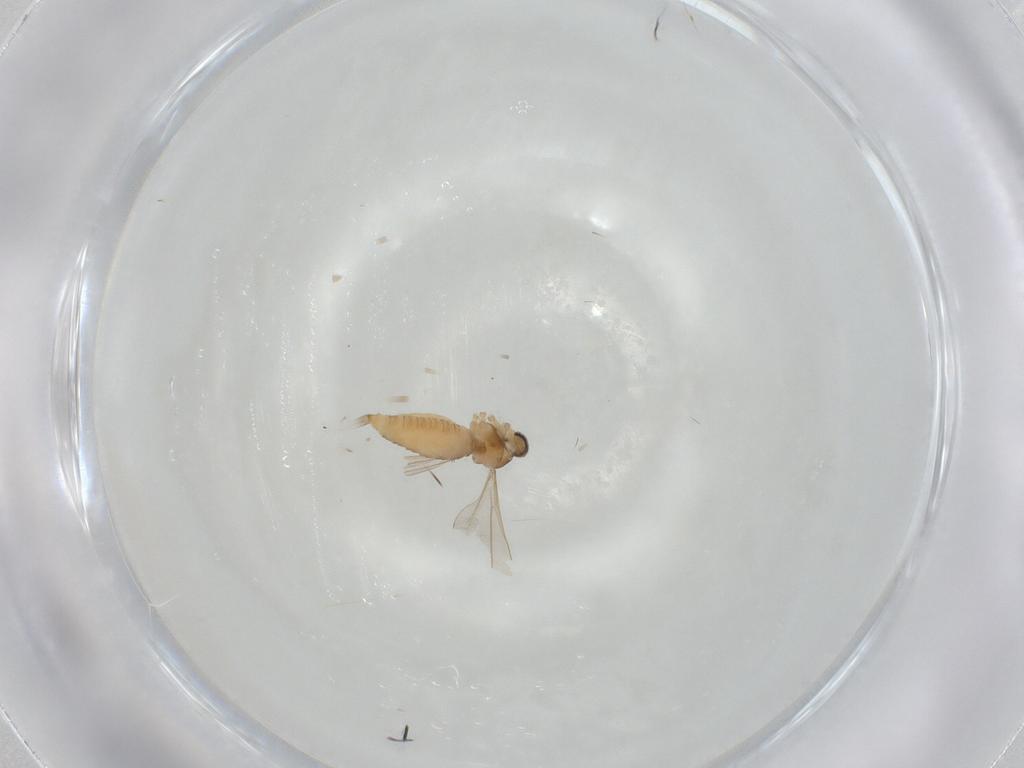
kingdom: Animalia
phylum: Arthropoda
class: Insecta
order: Diptera
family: Cecidomyiidae
